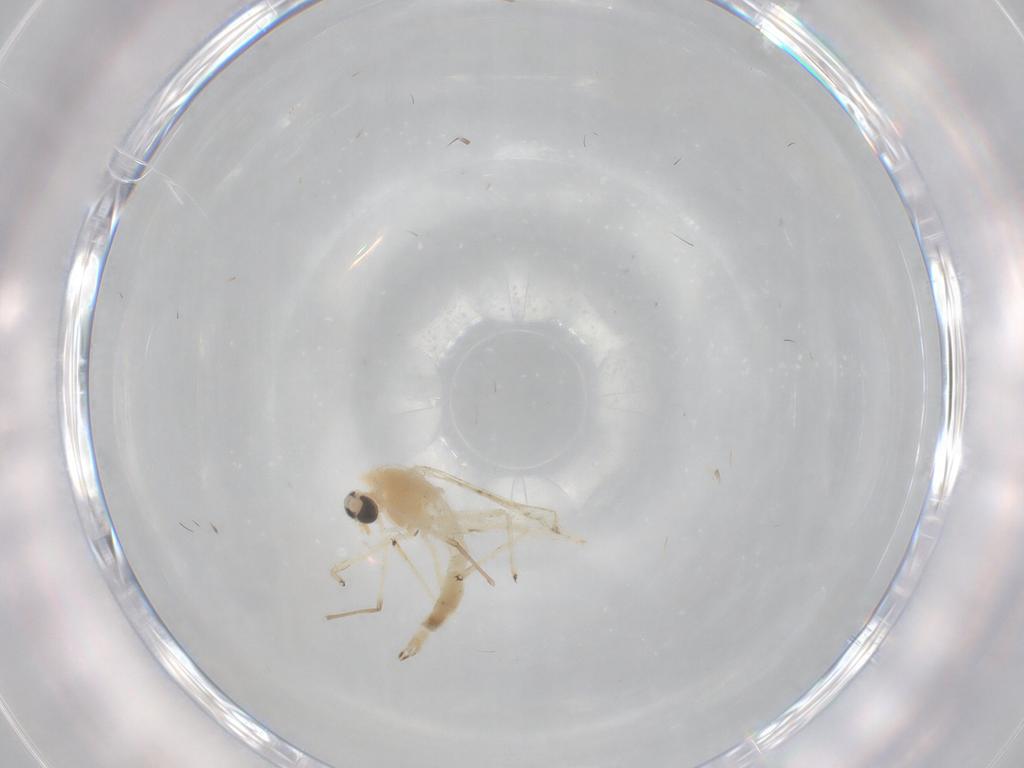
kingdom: Animalia
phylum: Arthropoda
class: Insecta
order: Diptera
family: Chironomidae
